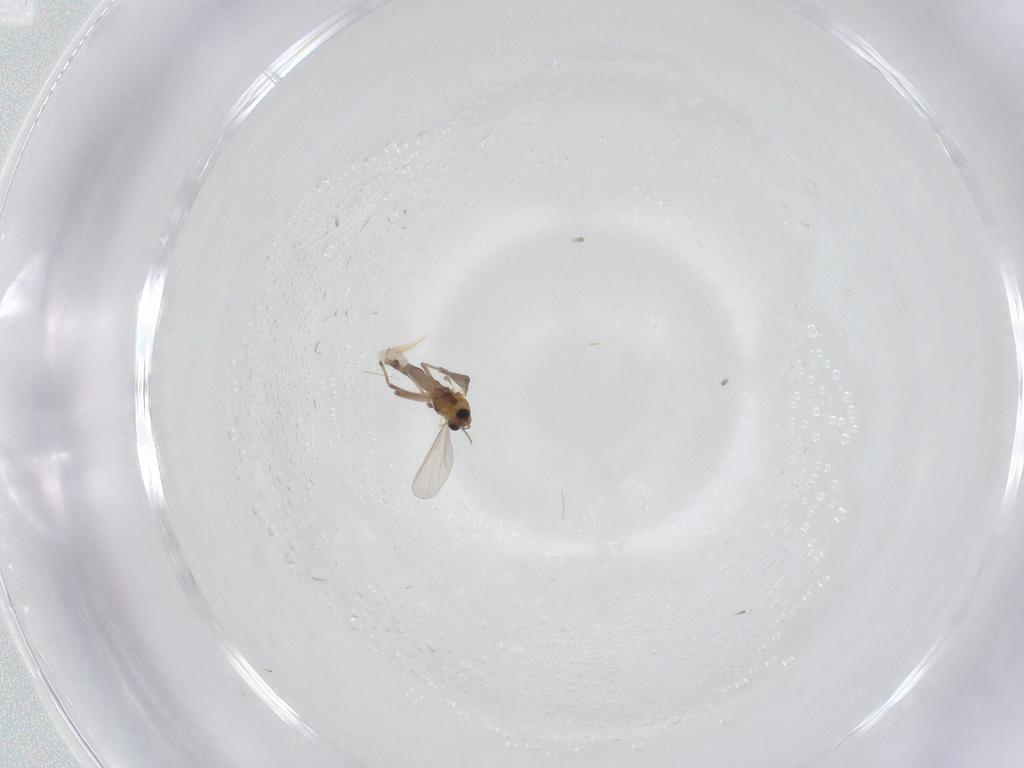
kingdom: Animalia
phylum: Arthropoda
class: Insecta
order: Diptera
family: Chironomidae
